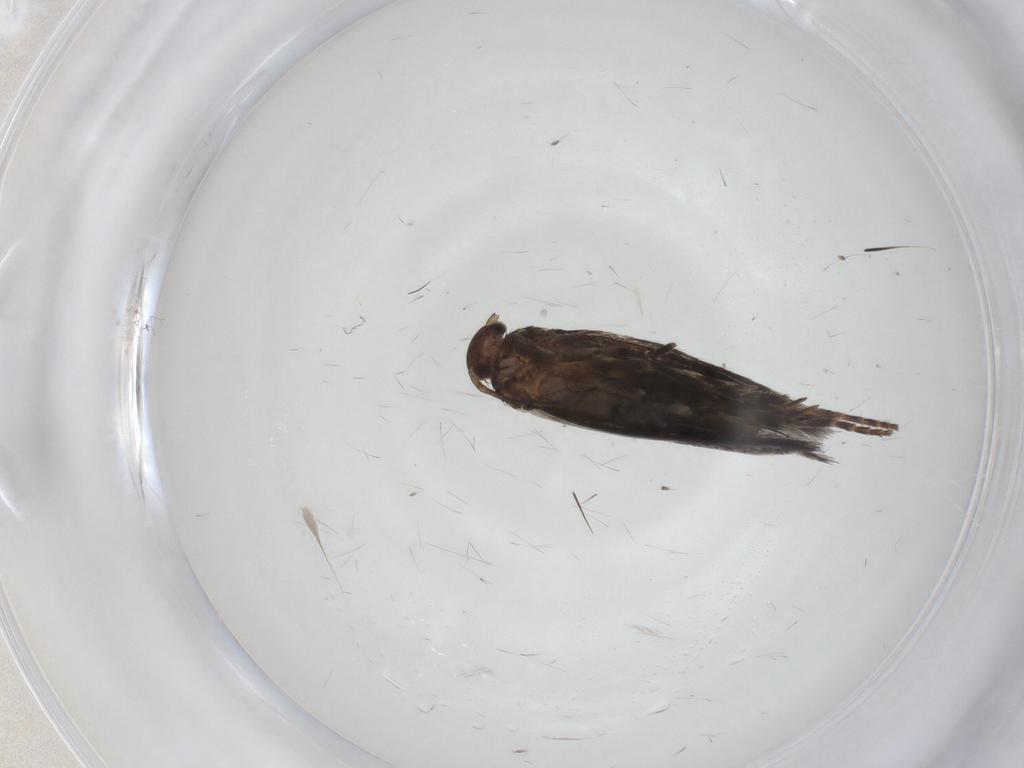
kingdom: Animalia
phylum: Arthropoda
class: Insecta
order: Lepidoptera
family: Elachistidae
